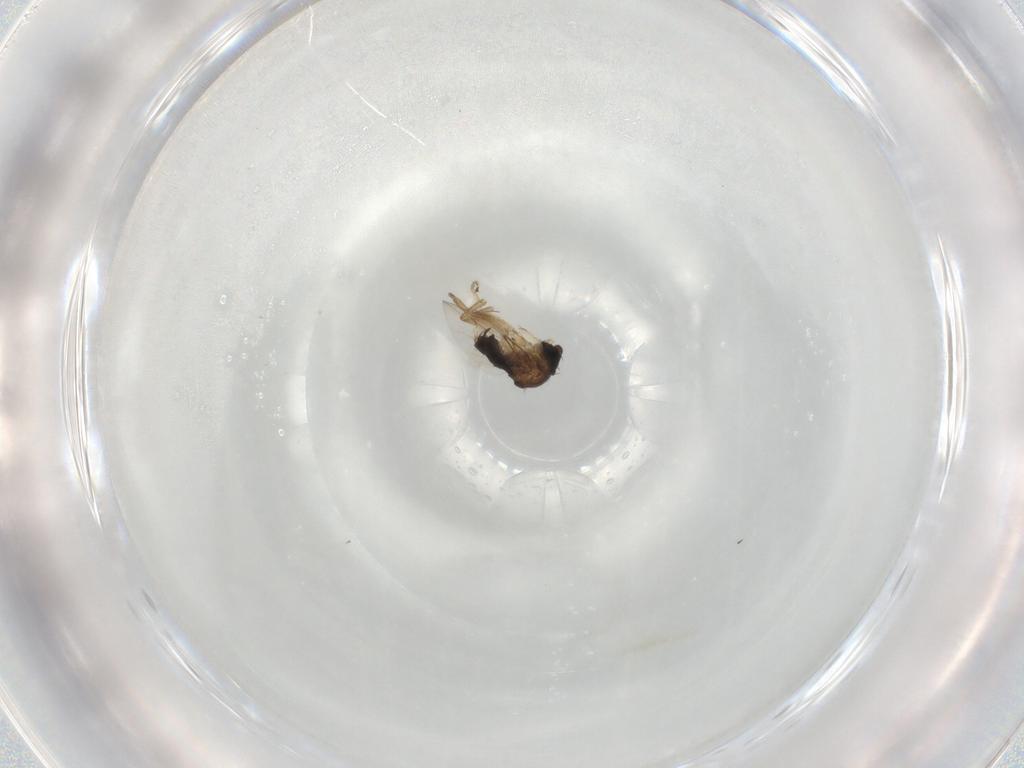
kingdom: Animalia
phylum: Arthropoda
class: Insecta
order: Diptera
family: Phoridae
